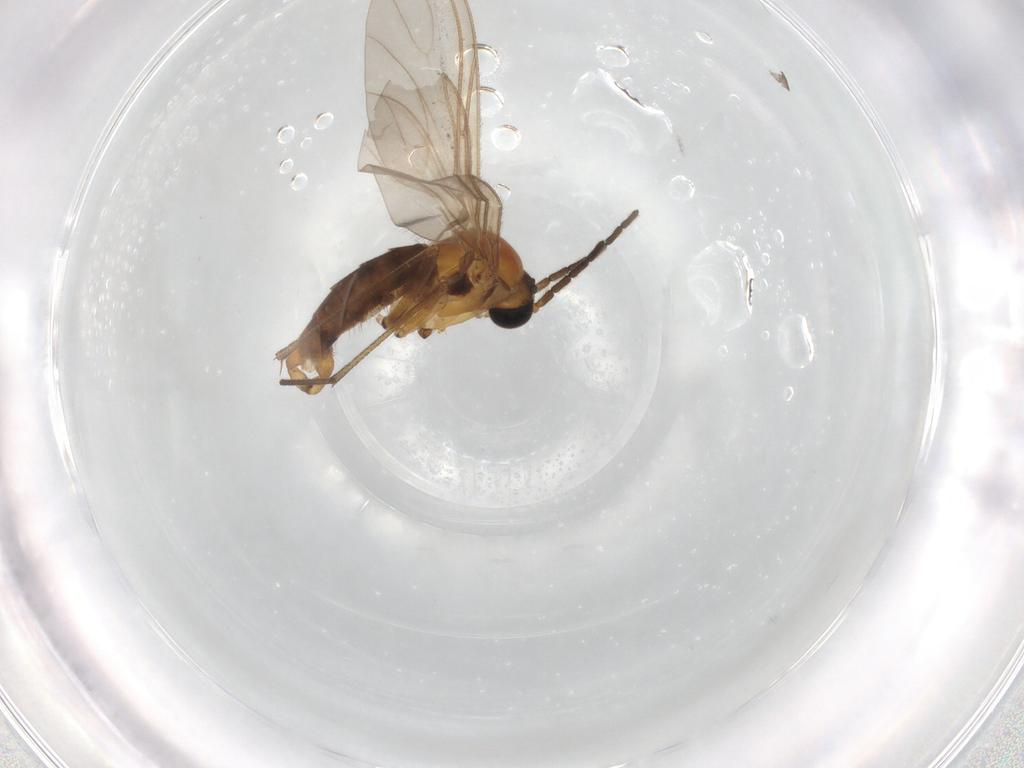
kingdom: Animalia
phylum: Arthropoda
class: Insecta
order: Diptera
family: Sciaridae
